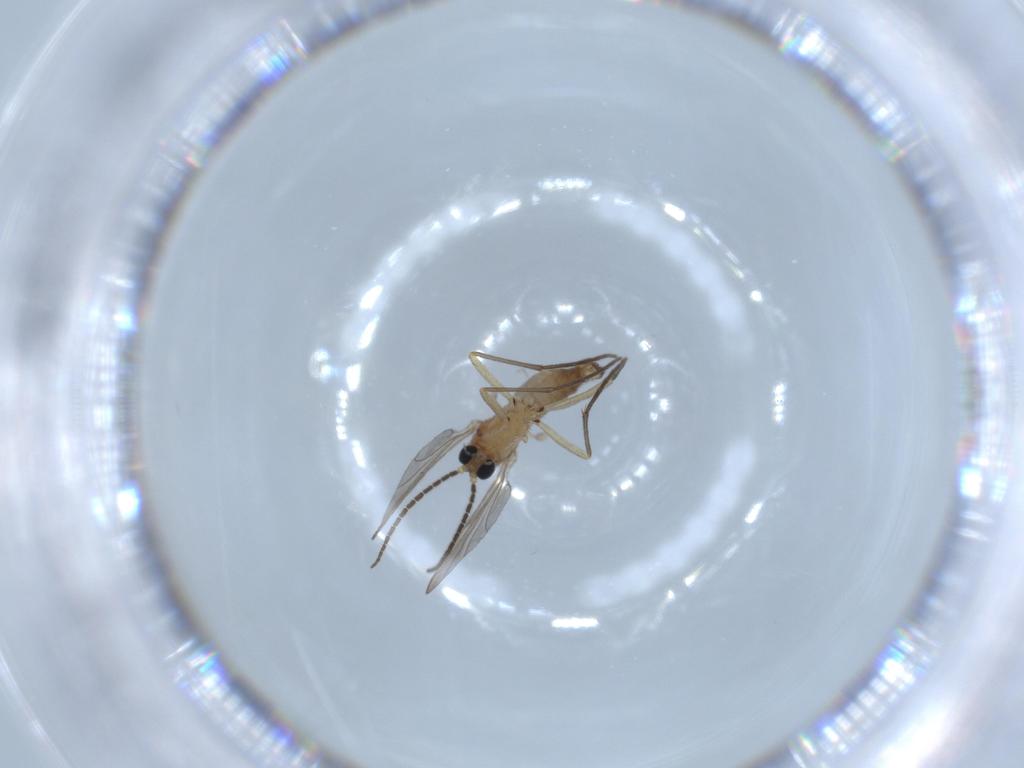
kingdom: Animalia
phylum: Arthropoda
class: Insecta
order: Diptera
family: Sciaridae
